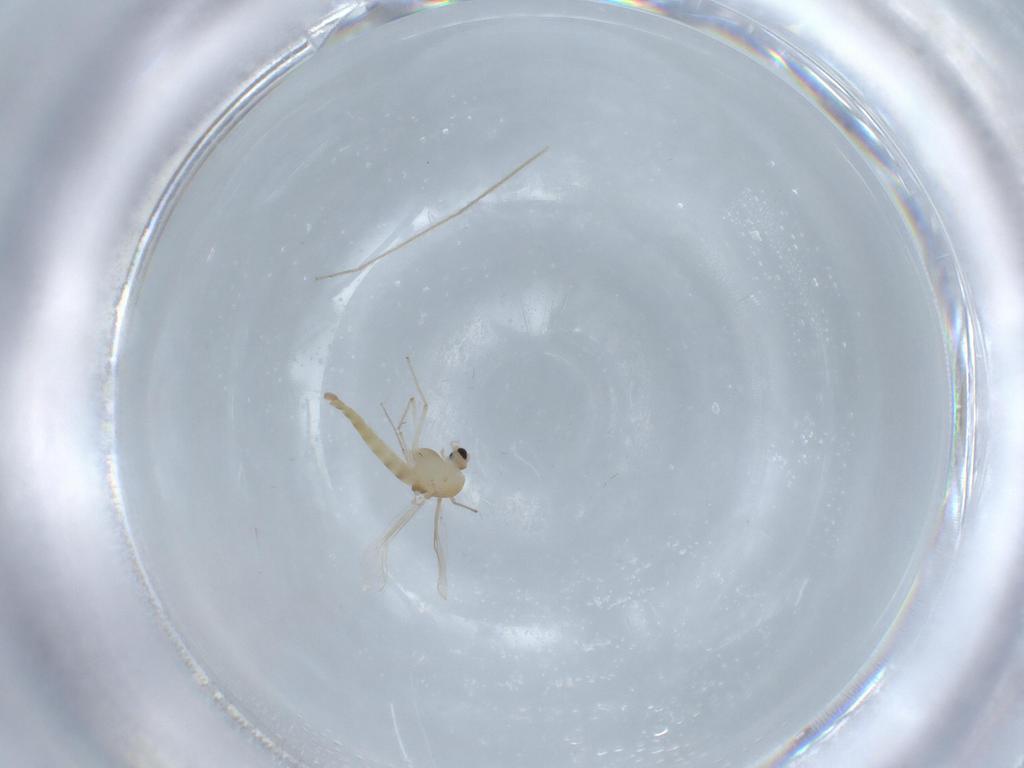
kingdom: Animalia
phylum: Arthropoda
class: Insecta
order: Diptera
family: Chironomidae
